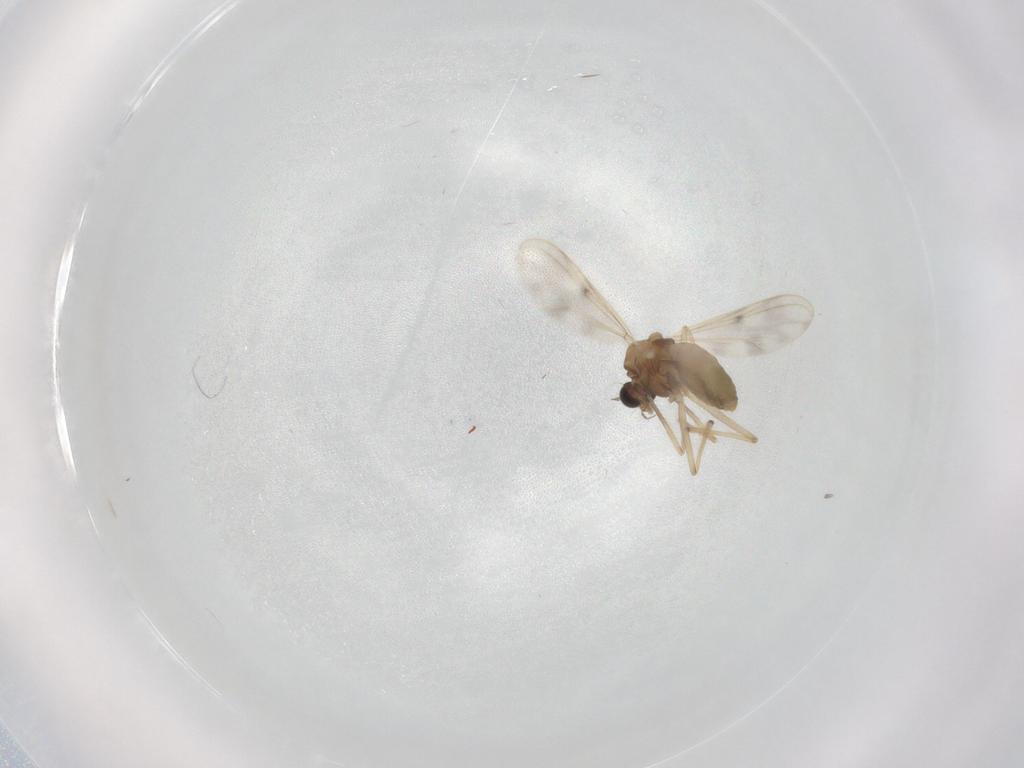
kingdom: Animalia
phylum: Arthropoda
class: Insecta
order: Diptera
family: Chironomidae
